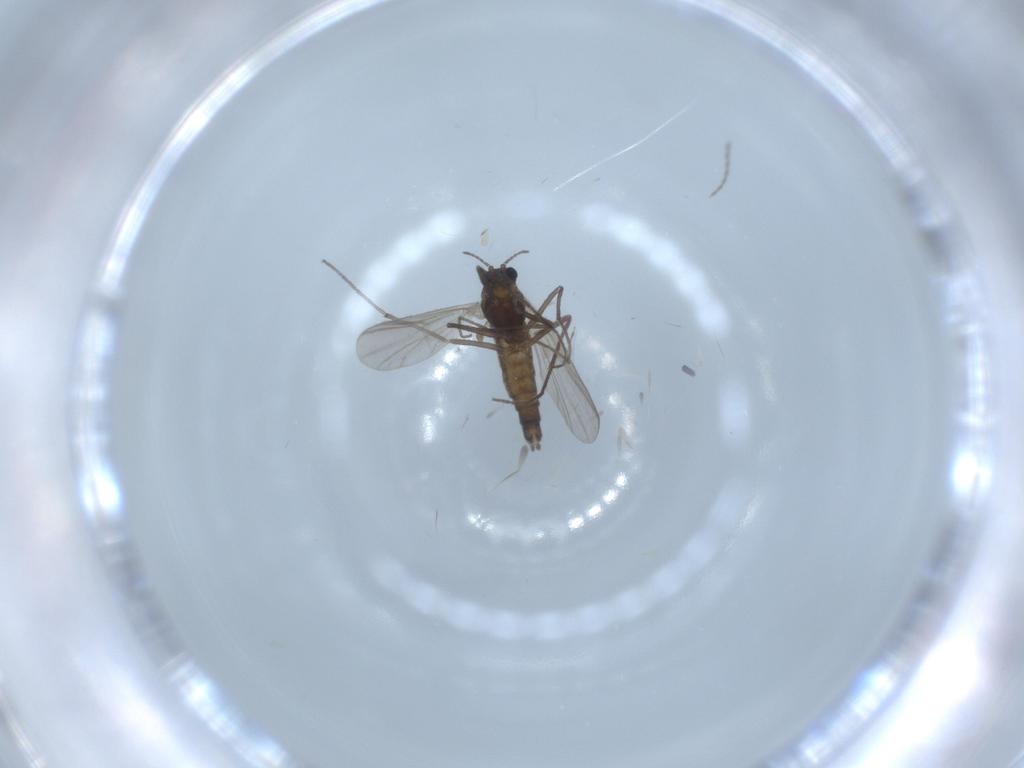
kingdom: Animalia
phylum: Arthropoda
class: Insecta
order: Diptera
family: Chironomidae
